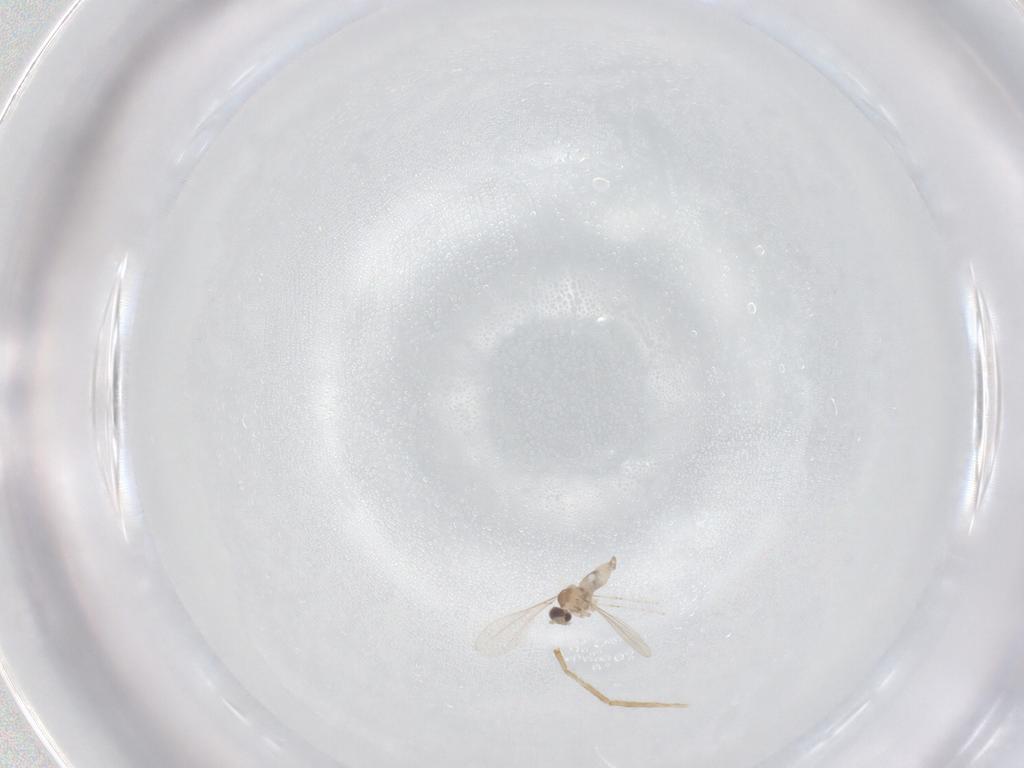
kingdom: Animalia
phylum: Arthropoda
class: Insecta
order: Diptera
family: Cecidomyiidae
